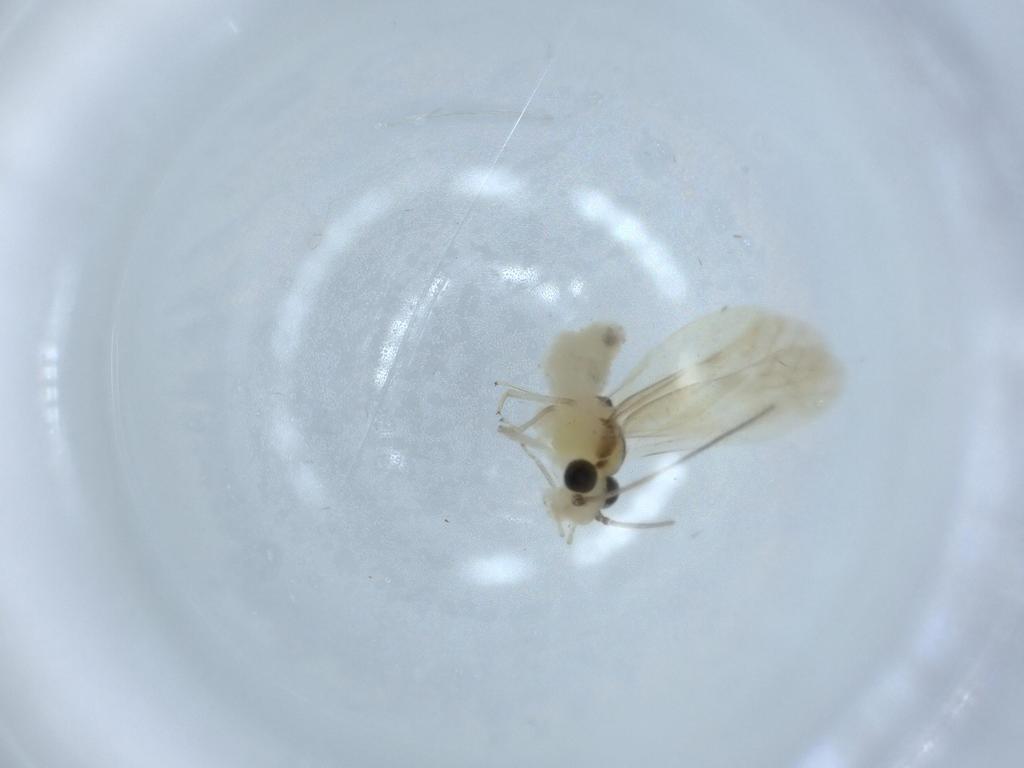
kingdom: Animalia
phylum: Arthropoda
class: Insecta
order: Psocodea
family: Caeciliusidae
